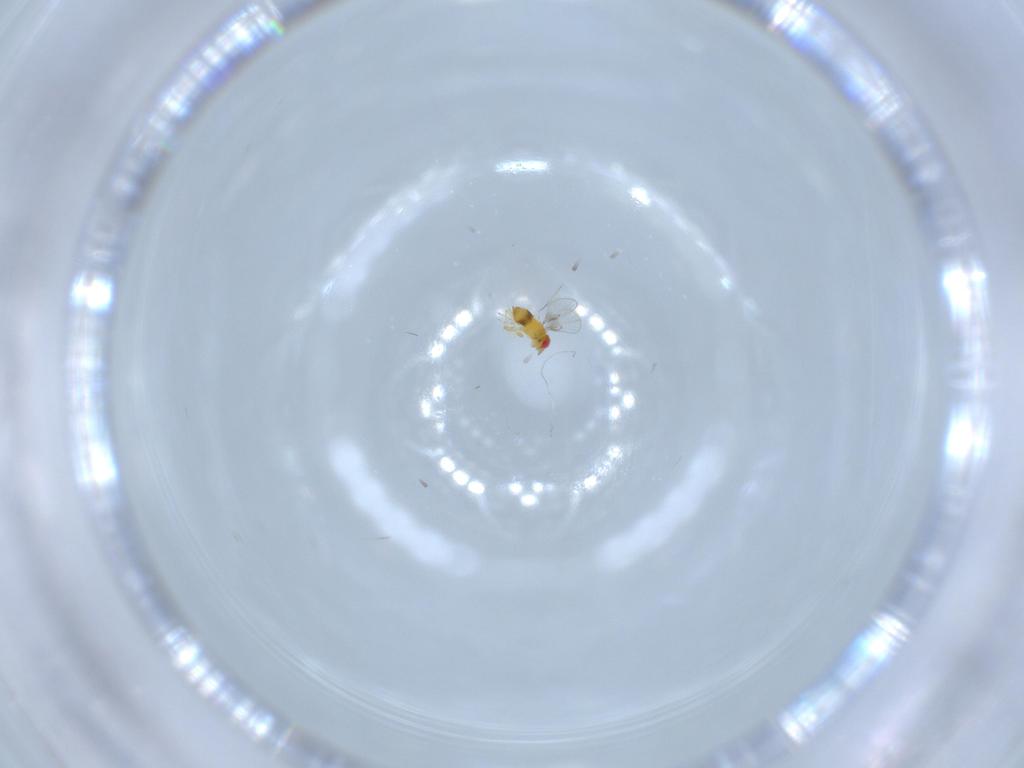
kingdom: Animalia
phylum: Arthropoda
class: Insecta
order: Hymenoptera
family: Trichogrammatidae
